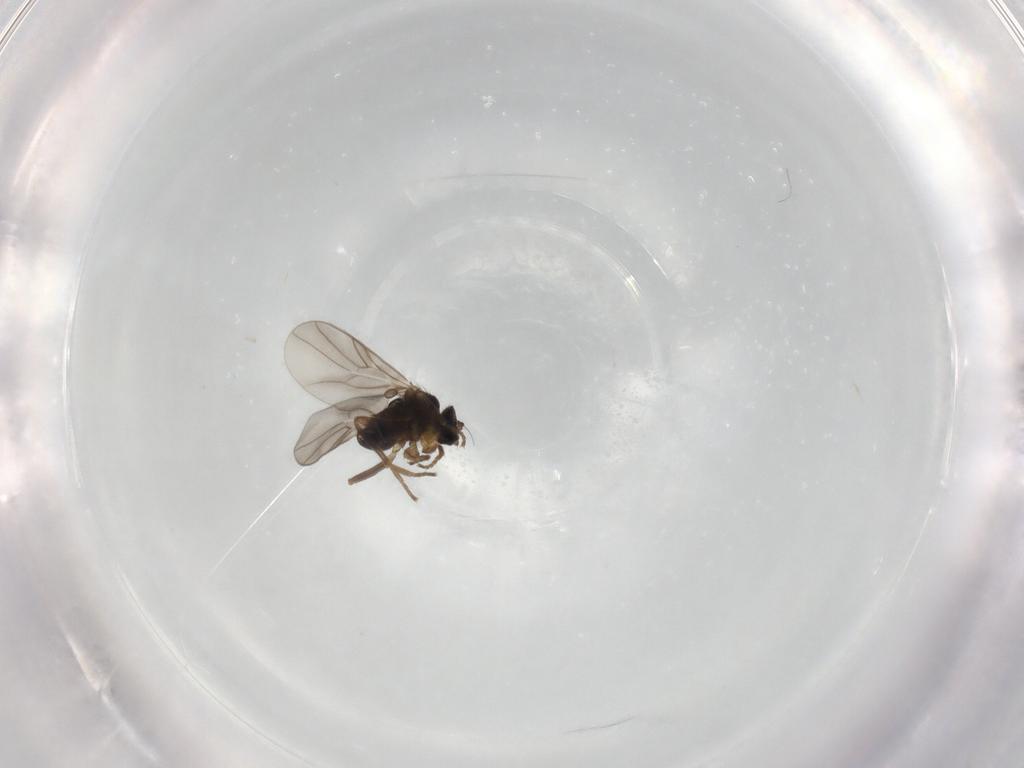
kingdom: Animalia
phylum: Arthropoda
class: Insecta
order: Diptera
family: Hybotidae
